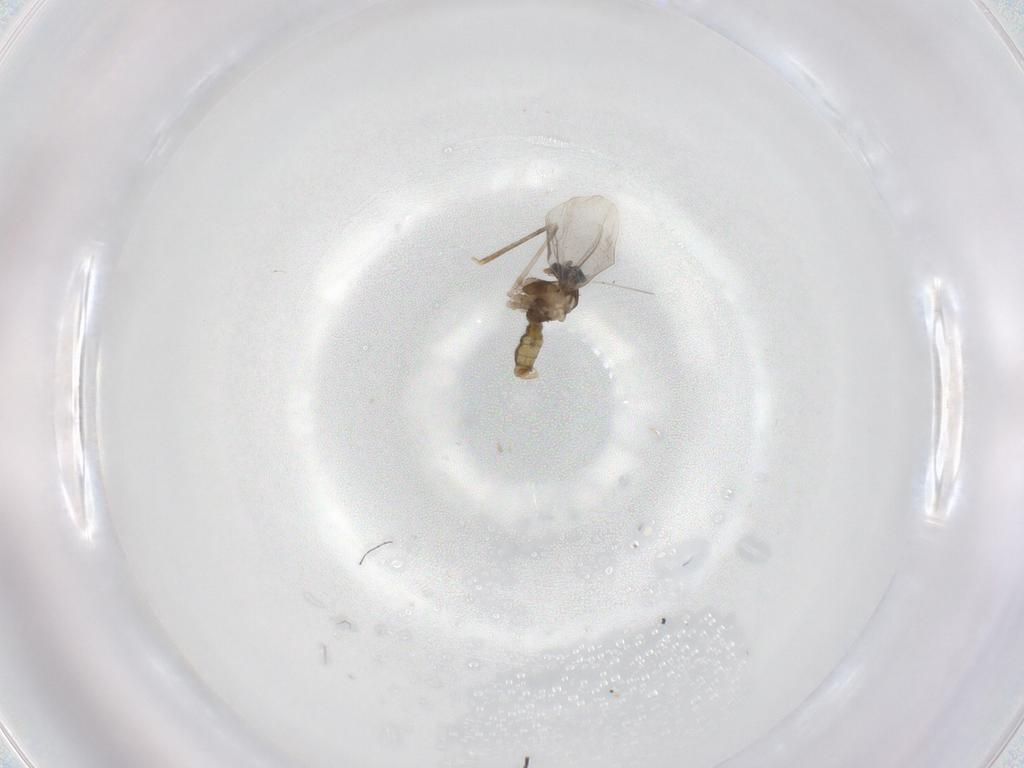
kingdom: Animalia
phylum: Arthropoda
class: Insecta
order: Diptera
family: Cecidomyiidae
